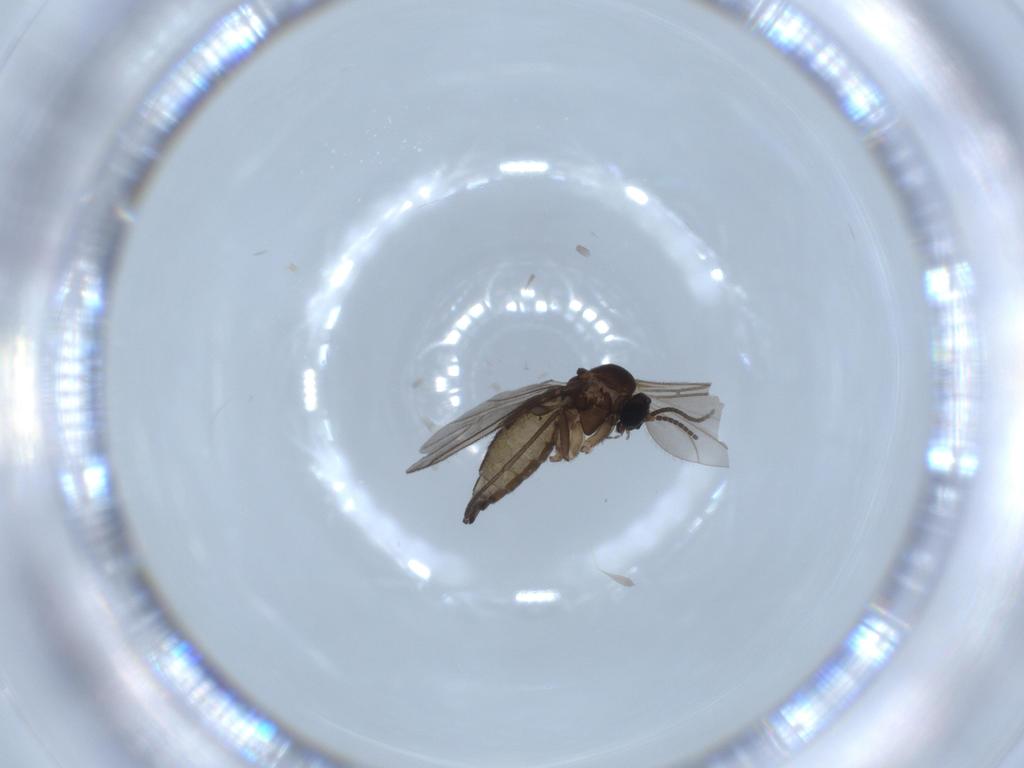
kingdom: Animalia
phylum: Arthropoda
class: Insecta
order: Diptera
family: Sciaridae
